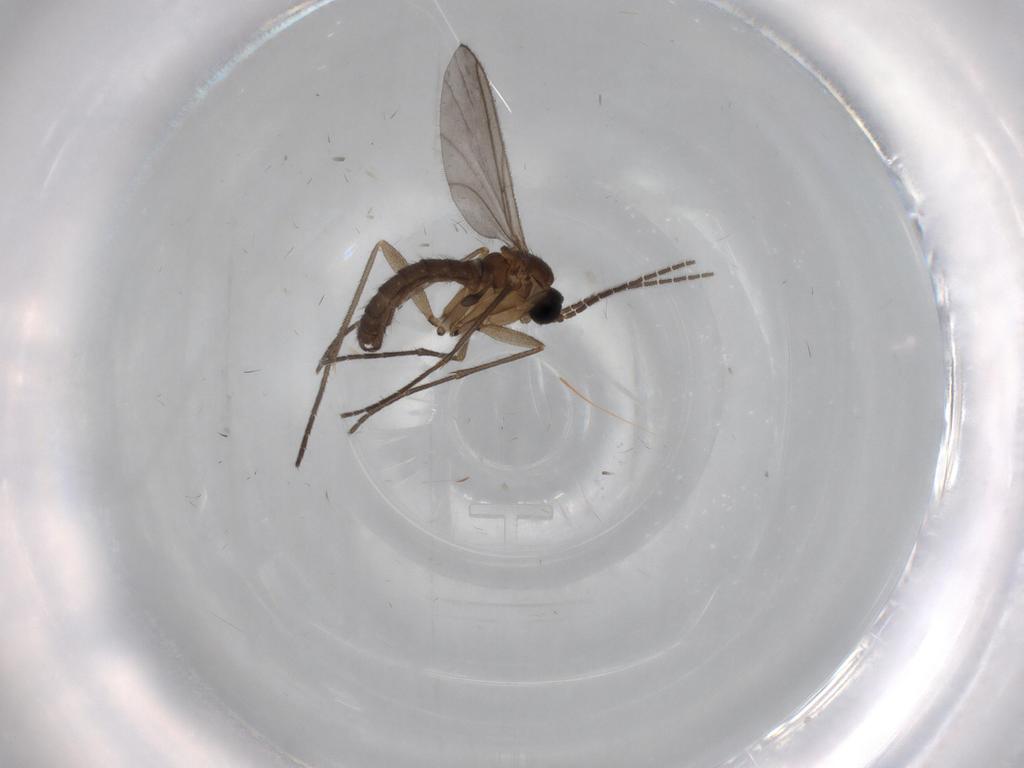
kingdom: Animalia
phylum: Arthropoda
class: Insecta
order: Diptera
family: Chironomidae
